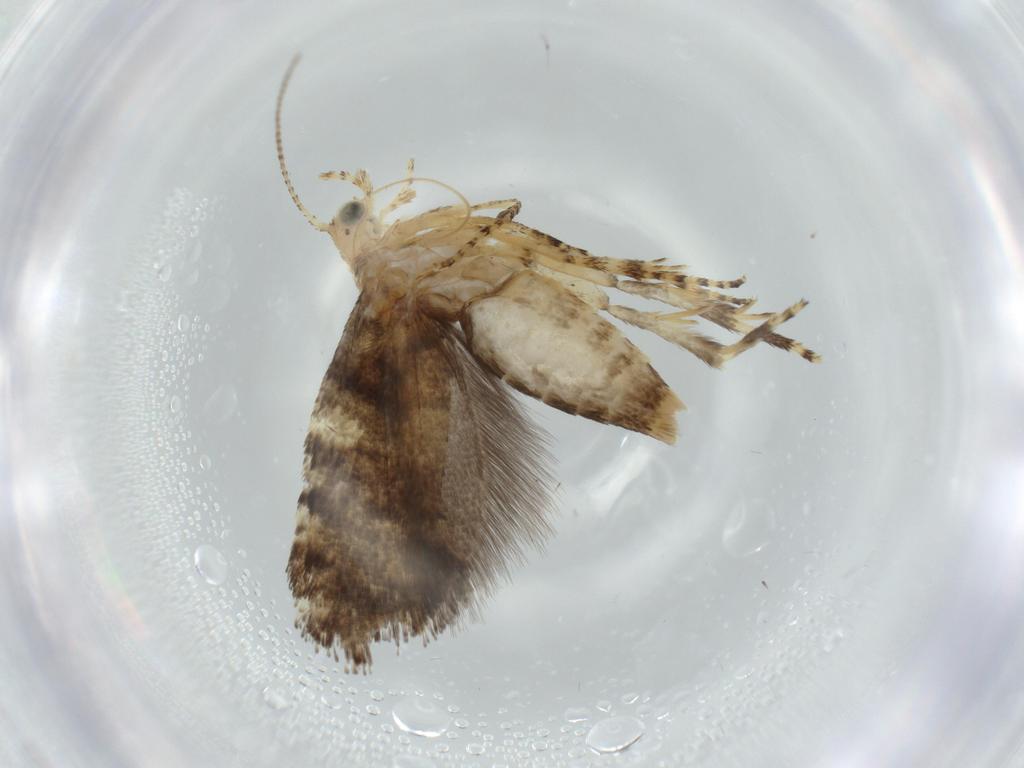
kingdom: Animalia
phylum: Arthropoda
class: Insecta
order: Lepidoptera
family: Glyphipterigidae
